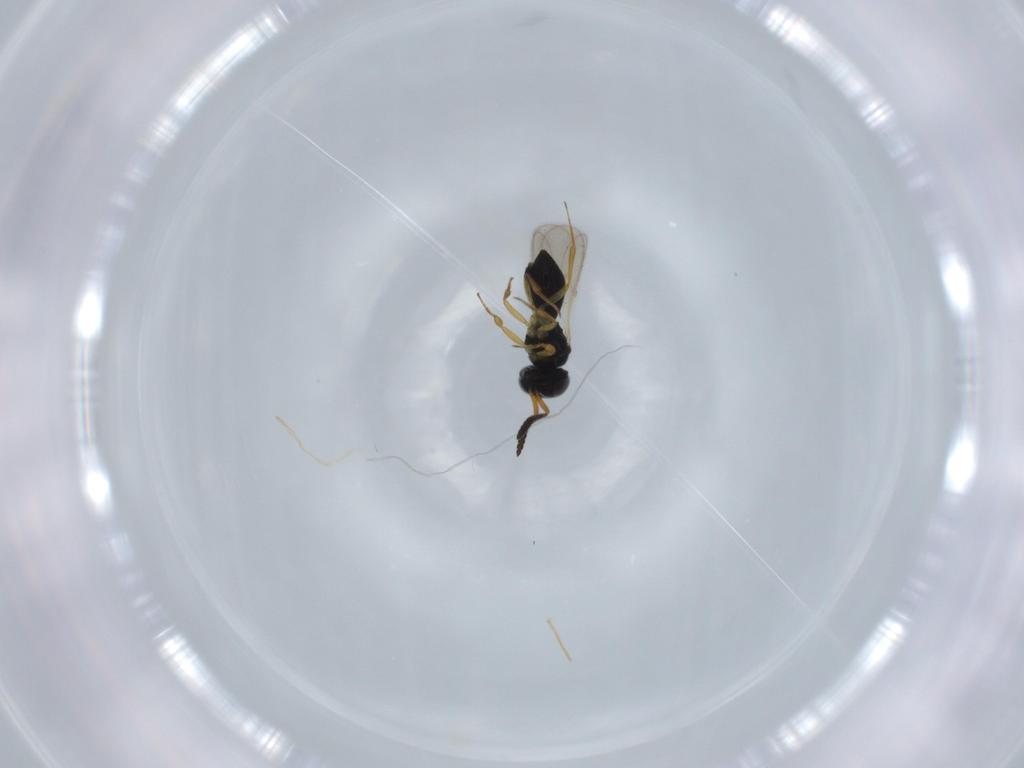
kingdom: Animalia
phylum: Arthropoda
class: Insecta
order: Hymenoptera
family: Scelionidae
